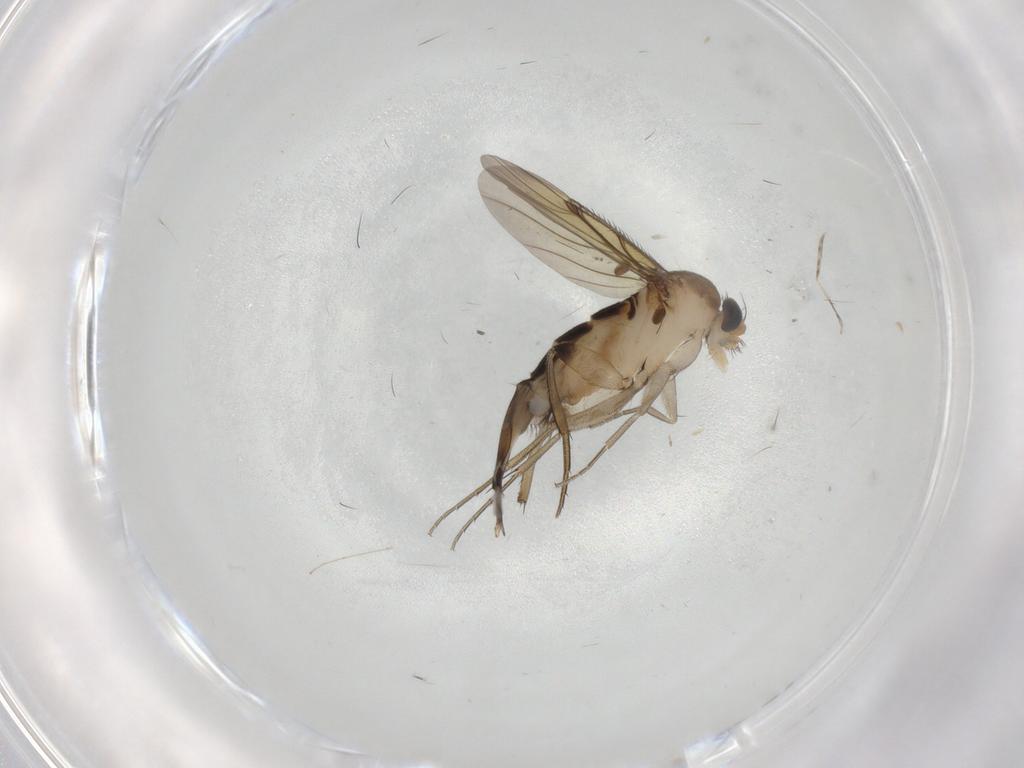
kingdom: Animalia
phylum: Arthropoda
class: Insecta
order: Diptera
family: Phoridae
